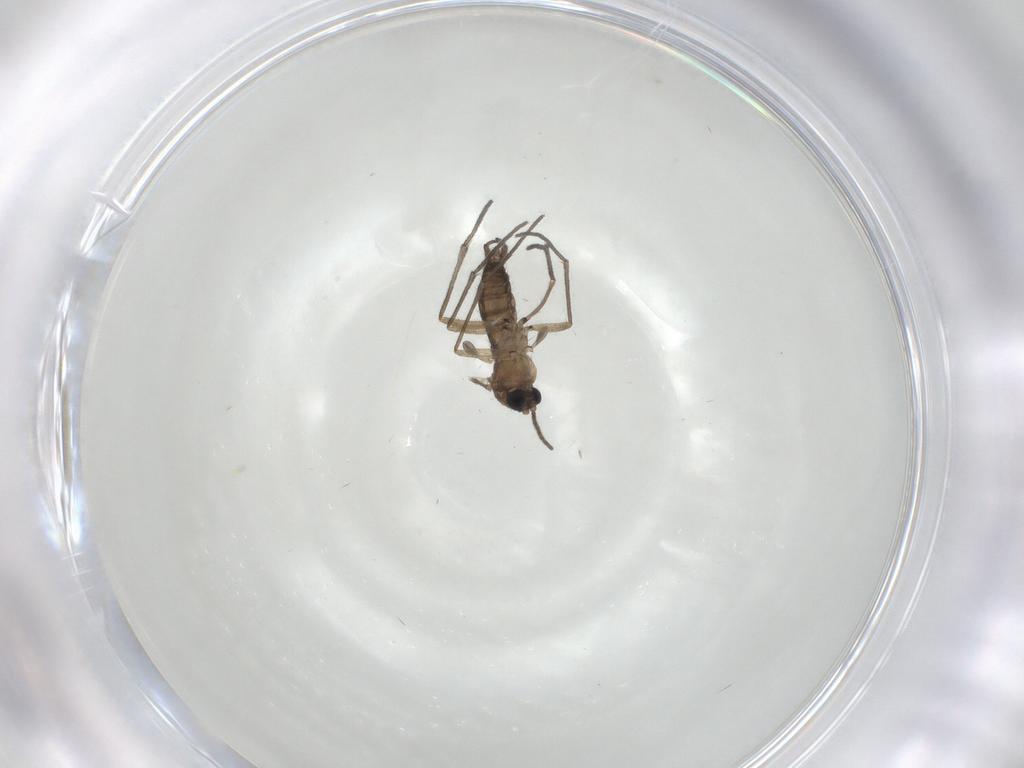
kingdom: Animalia
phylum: Arthropoda
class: Insecta
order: Diptera
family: Sciaridae
